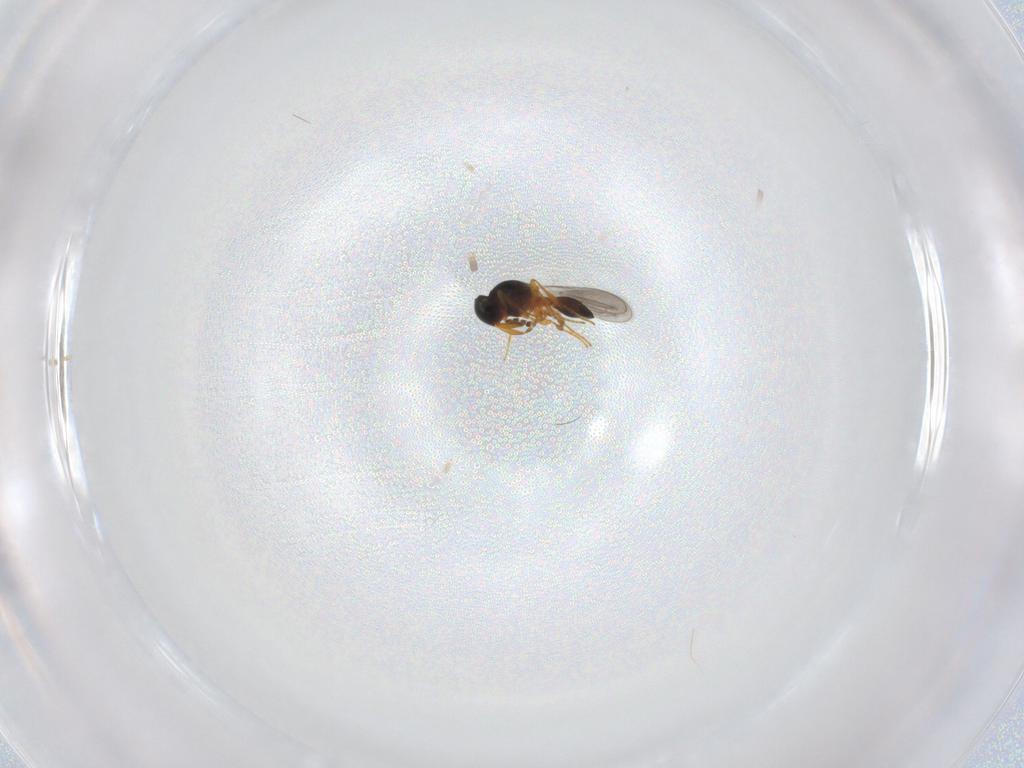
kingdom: Animalia
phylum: Arthropoda
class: Insecta
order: Hymenoptera
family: Platygastridae
